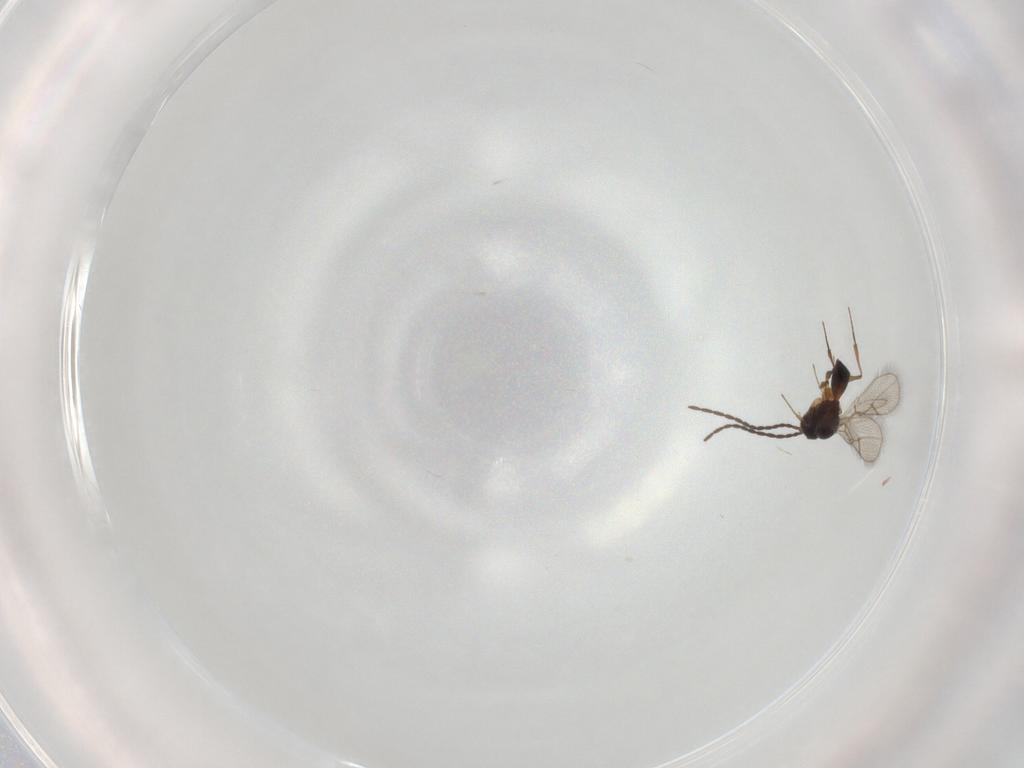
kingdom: Animalia
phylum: Arthropoda
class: Insecta
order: Hymenoptera
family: Figitidae
